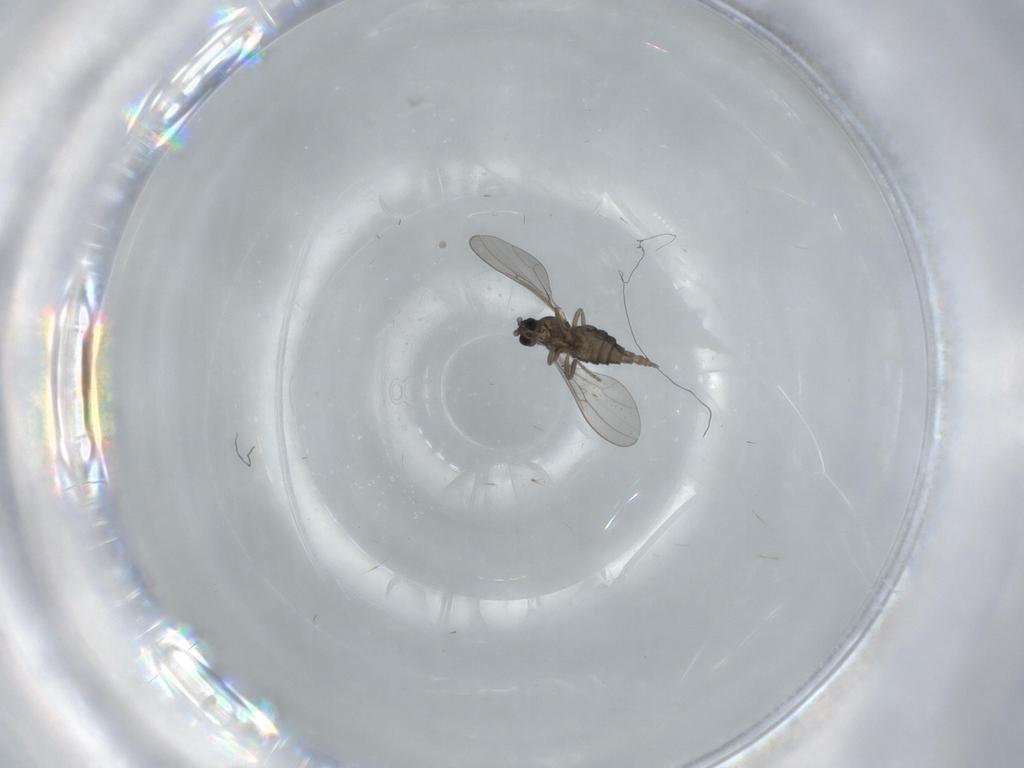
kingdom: Animalia
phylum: Arthropoda
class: Insecta
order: Diptera
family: Cecidomyiidae
